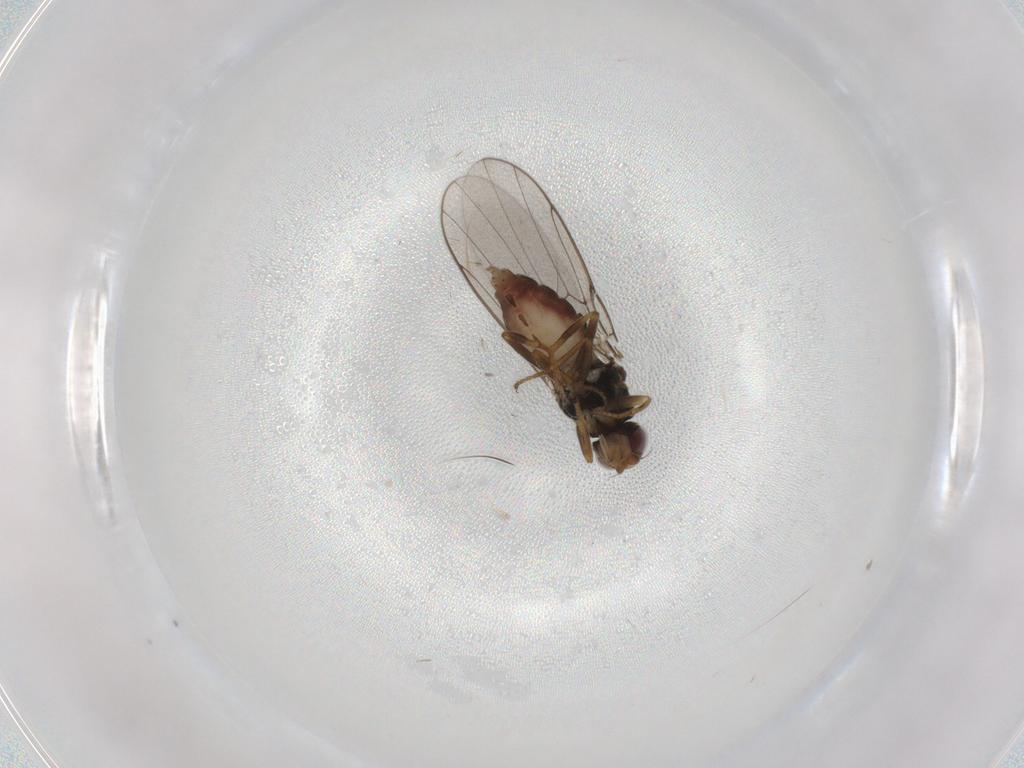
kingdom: Animalia
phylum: Arthropoda
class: Insecta
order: Diptera
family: Chloropidae
